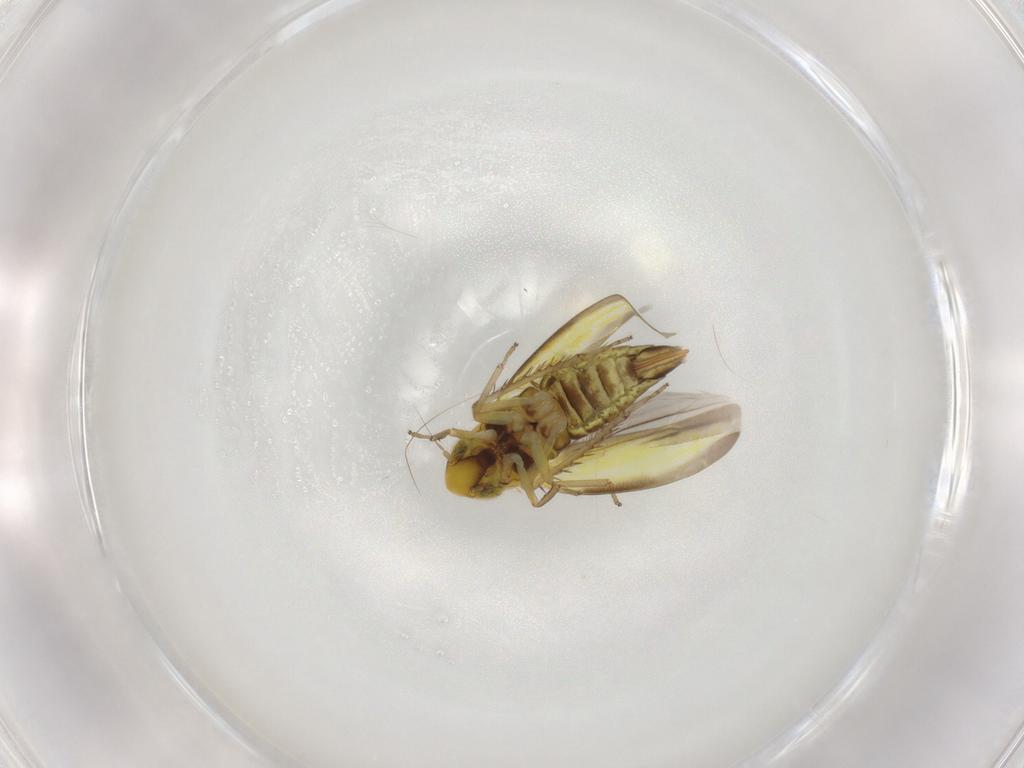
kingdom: Animalia
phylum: Arthropoda
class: Insecta
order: Hemiptera
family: Cicadellidae
